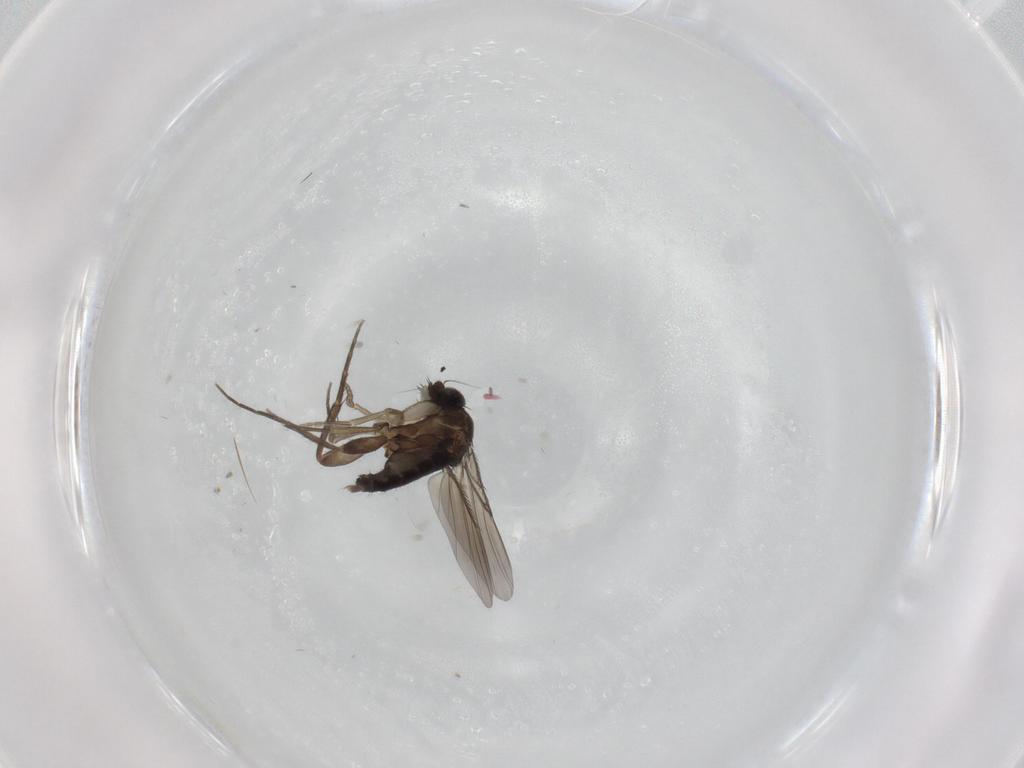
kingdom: Animalia
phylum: Arthropoda
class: Insecta
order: Diptera
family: Phoridae
